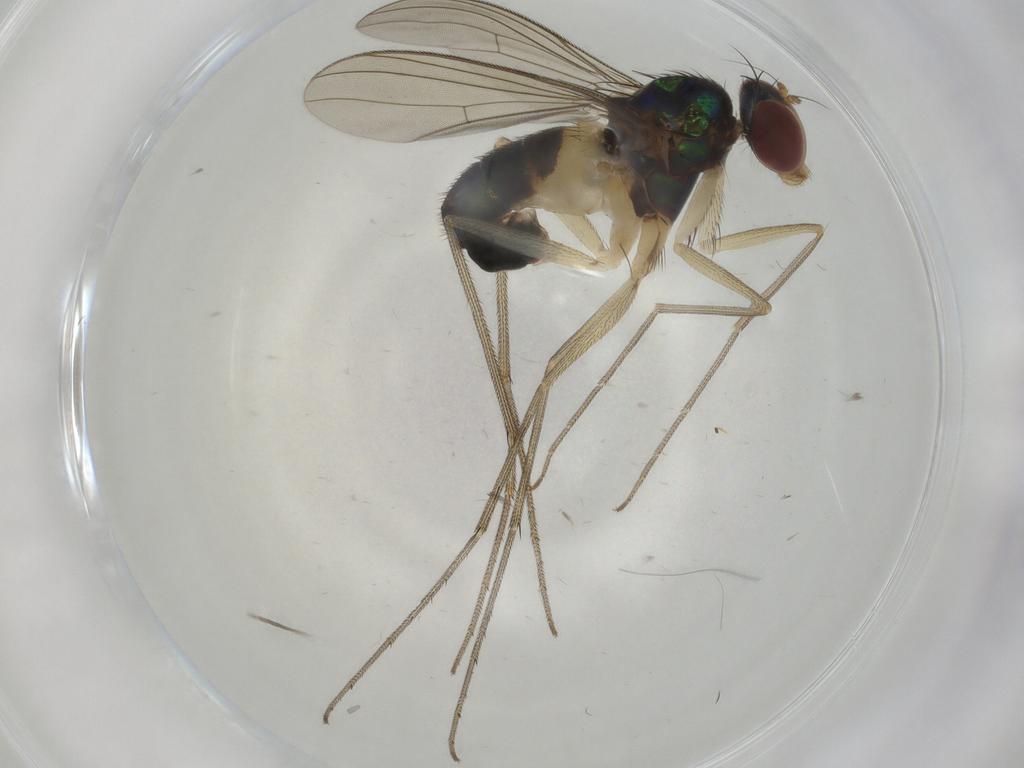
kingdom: Animalia
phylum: Arthropoda
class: Insecta
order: Diptera
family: Dolichopodidae
